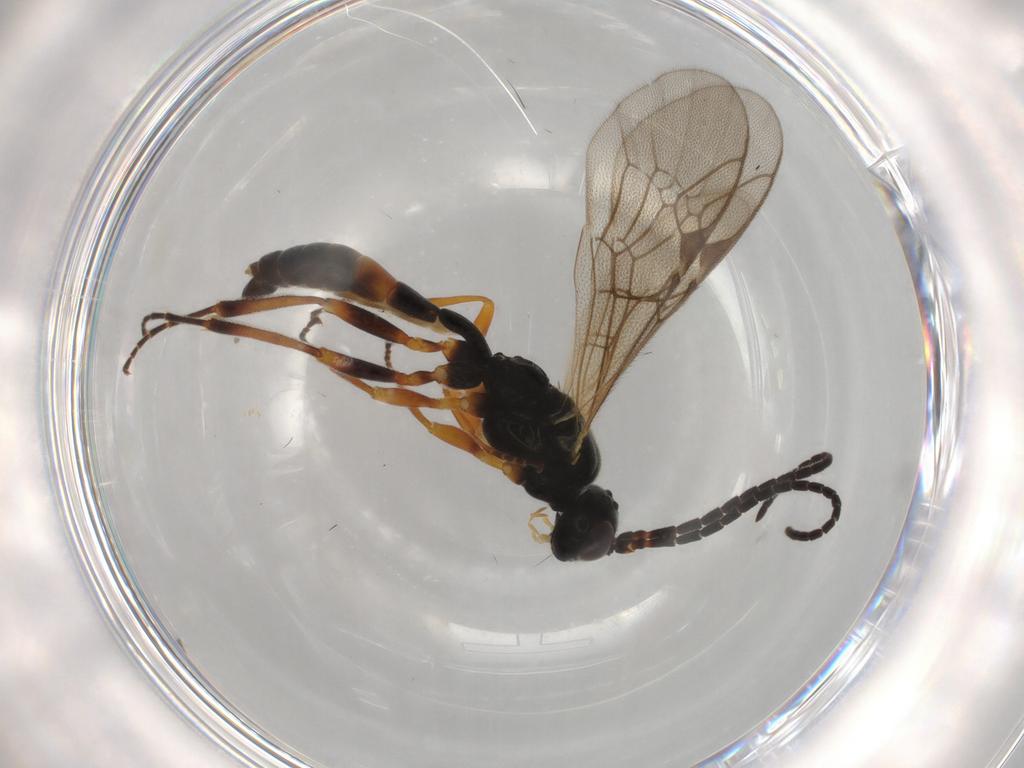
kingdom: Animalia
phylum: Arthropoda
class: Insecta
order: Hymenoptera
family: Ichneumonidae
